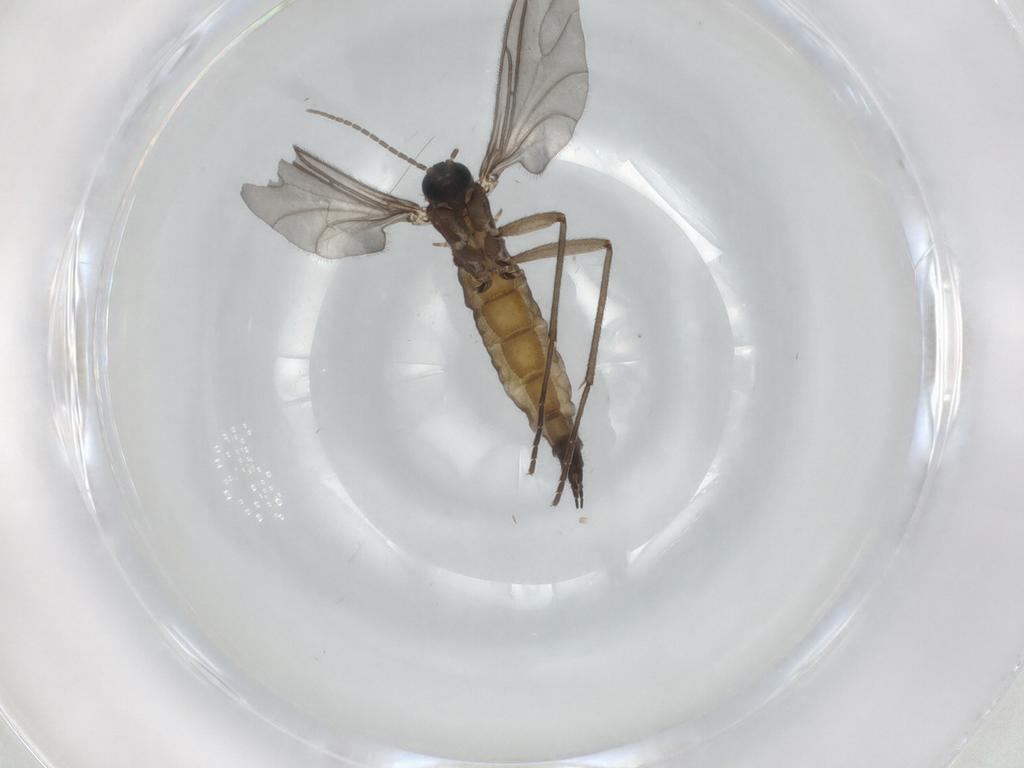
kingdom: Animalia
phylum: Arthropoda
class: Insecta
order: Diptera
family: Sciaridae
